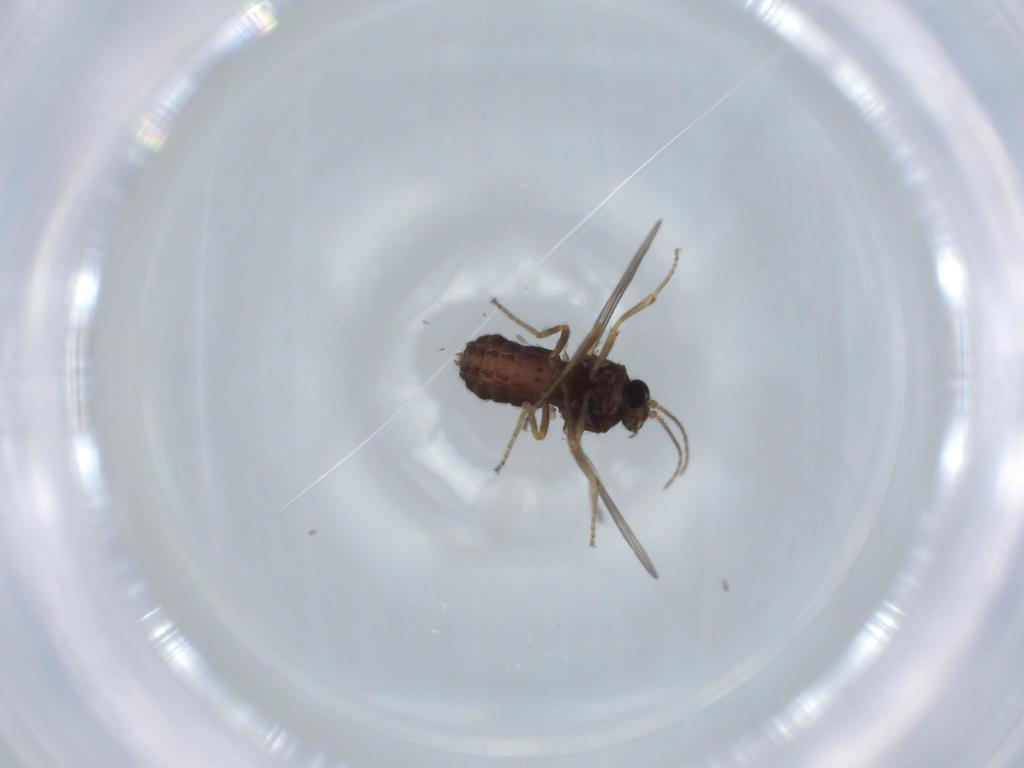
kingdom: Animalia
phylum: Arthropoda
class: Insecta
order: Diptera
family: Ceratopogonidae
